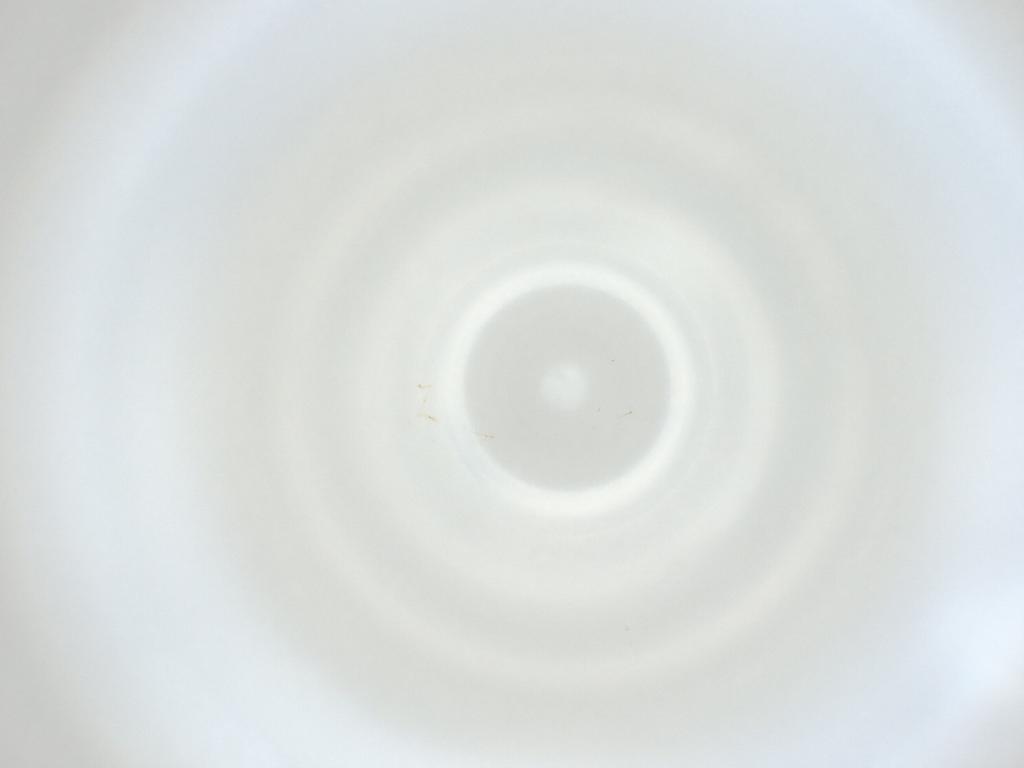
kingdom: Animalia
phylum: Arthropoda
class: Insecta
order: Diptera
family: Cecidomyiidae
